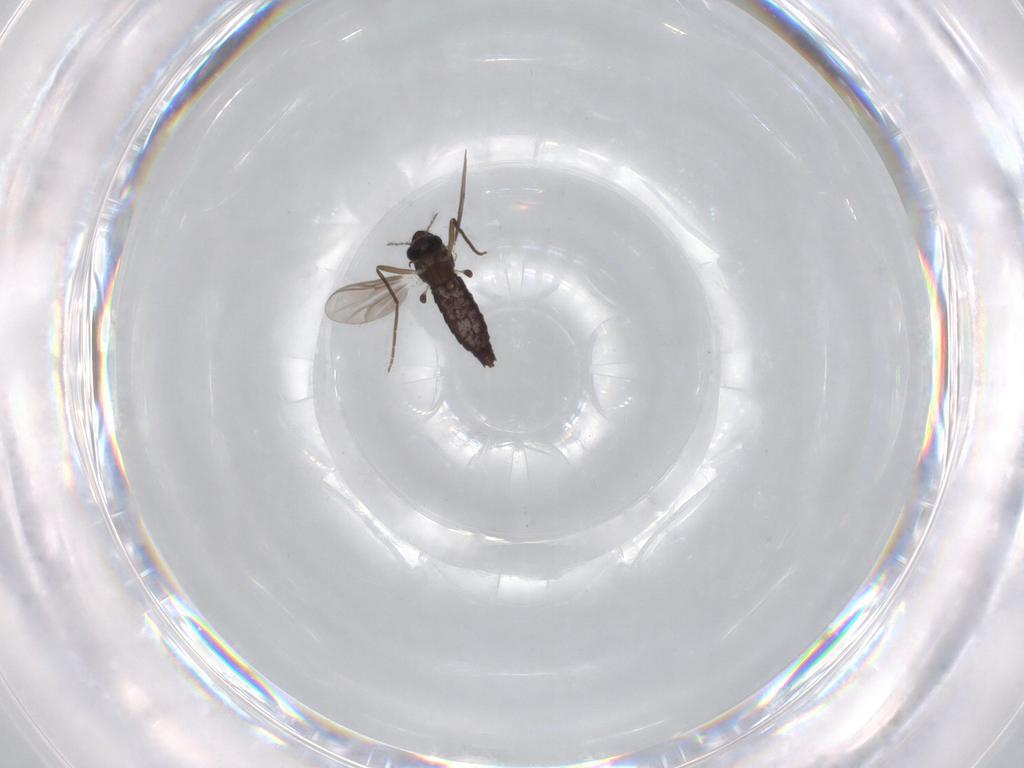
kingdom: Animalia
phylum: Arthropoda
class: Insecta
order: Diptera
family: Chironomidae
